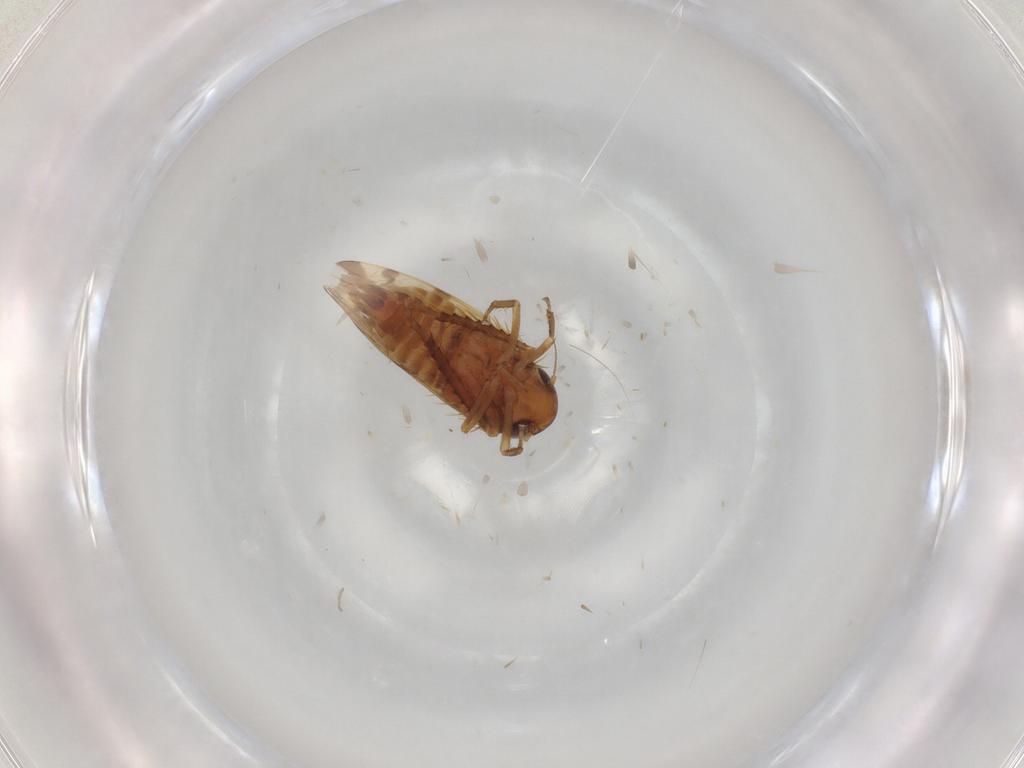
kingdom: Animalia
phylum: Arthropoda
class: Insecta
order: Hemiptera
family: Cicadellidae
